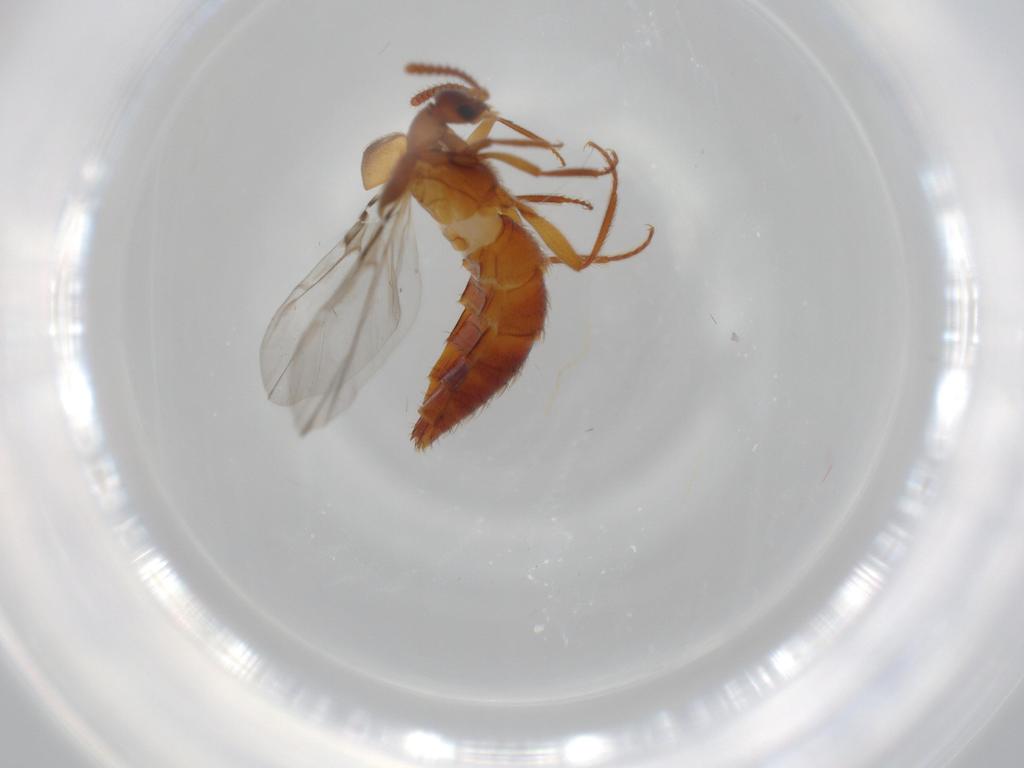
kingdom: Animalia
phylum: Arthropoda
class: Insecta
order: Coleoptera
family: Staphylinidae
